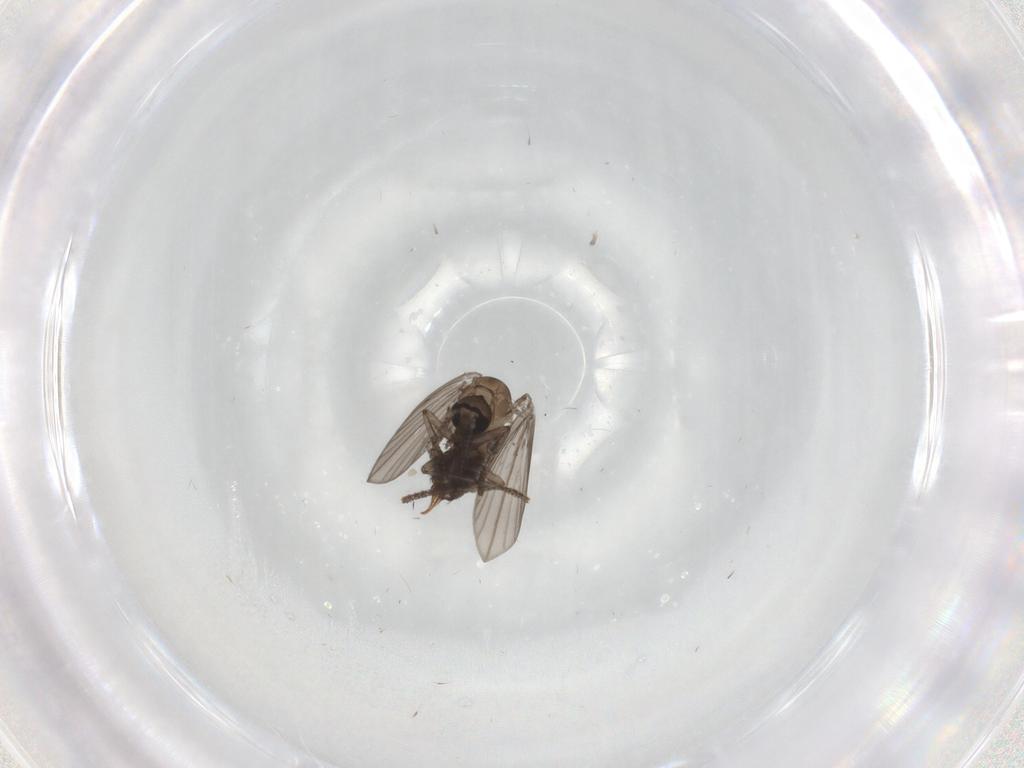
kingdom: Animalia
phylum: Arthropoda
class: Insecta
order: Diptera
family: Psychodidae
